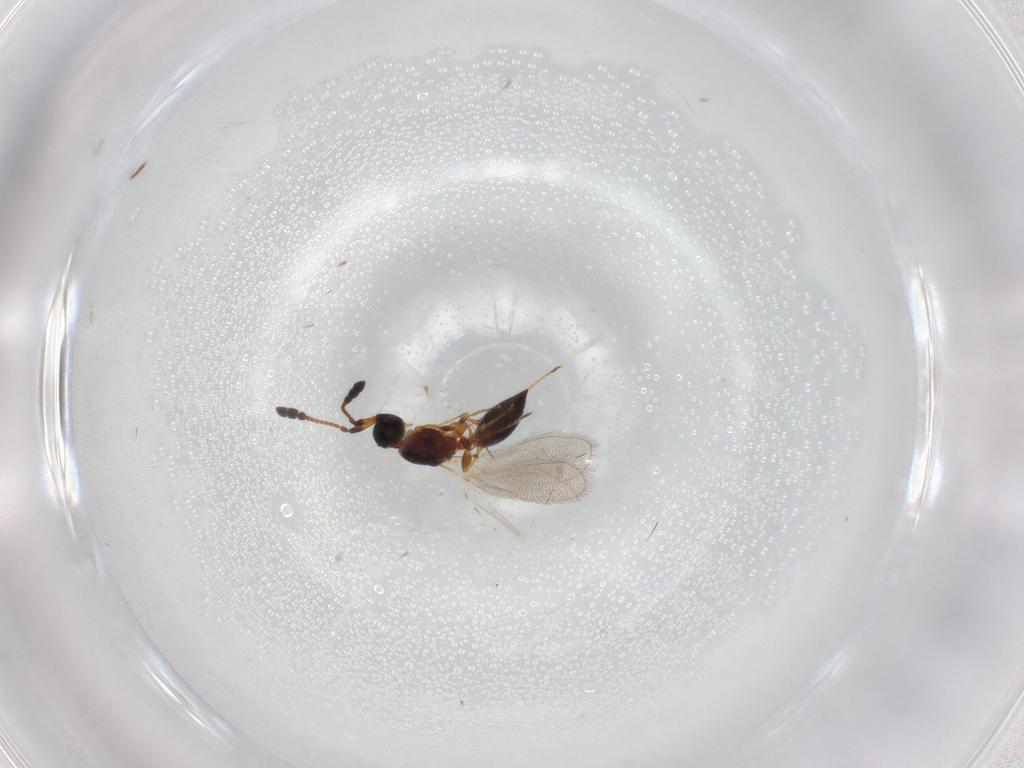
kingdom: Animalia
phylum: Arthropoda
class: Insecta
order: Hymenoptera
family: Diapriidae
